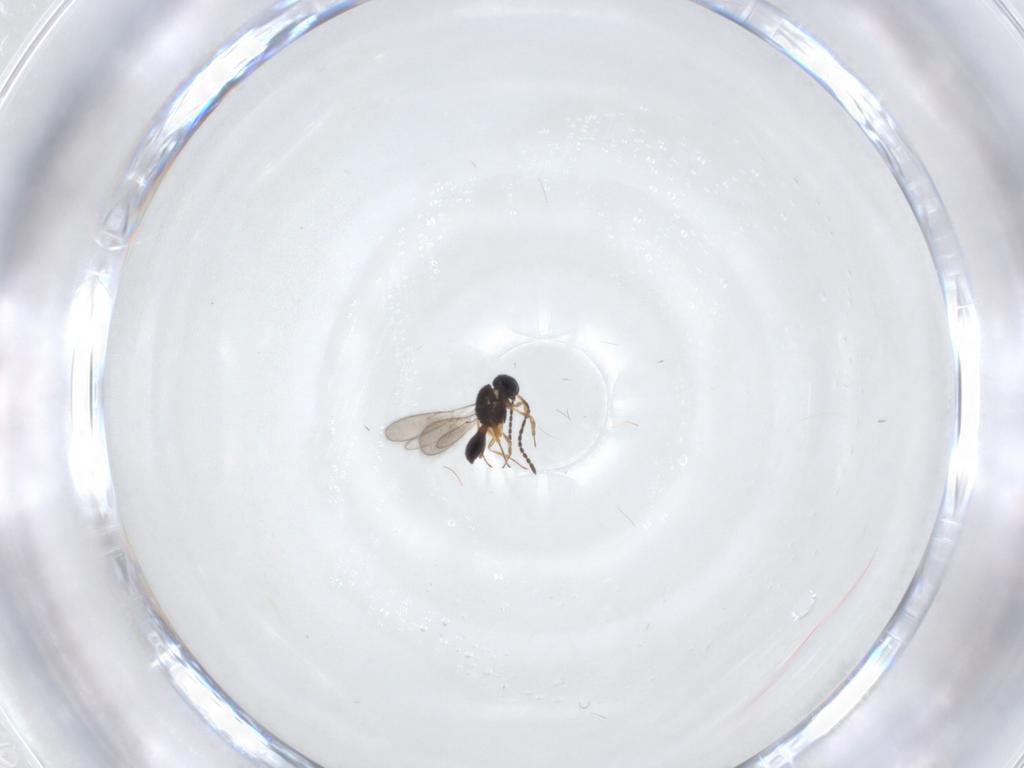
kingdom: Animalia
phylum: Arthropoda
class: Insecta
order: Hymenoptera
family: Scelionidae
